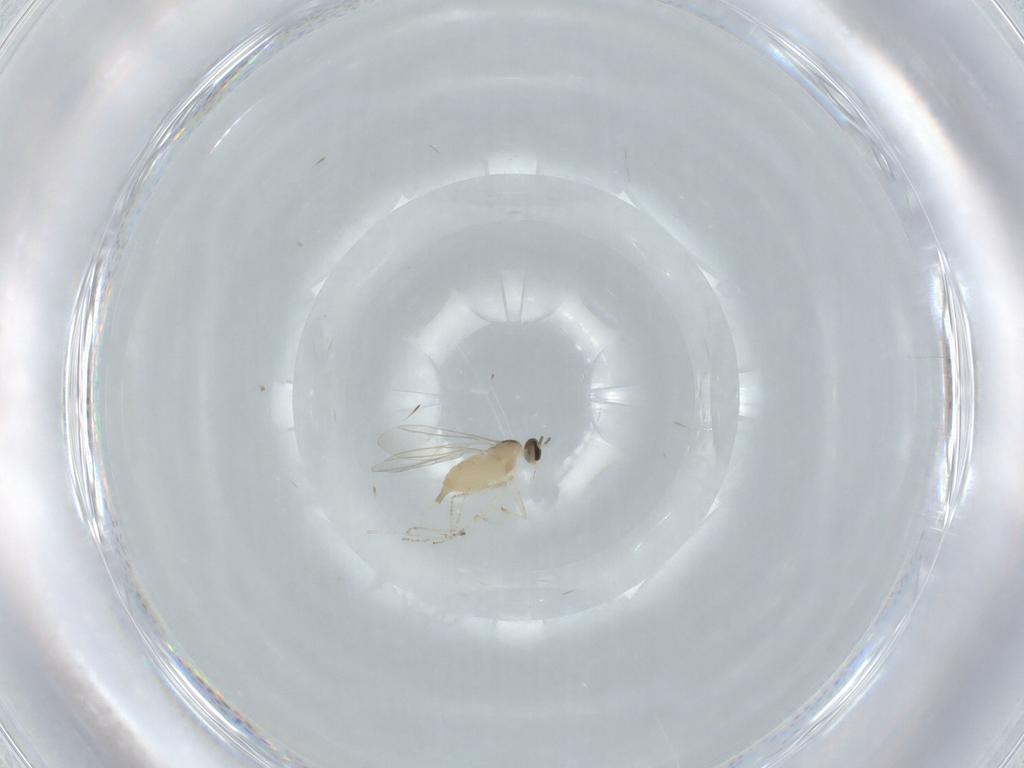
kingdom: Animalia
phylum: Arthropoda
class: Insecta
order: Diptera
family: Cecidomyiidae
